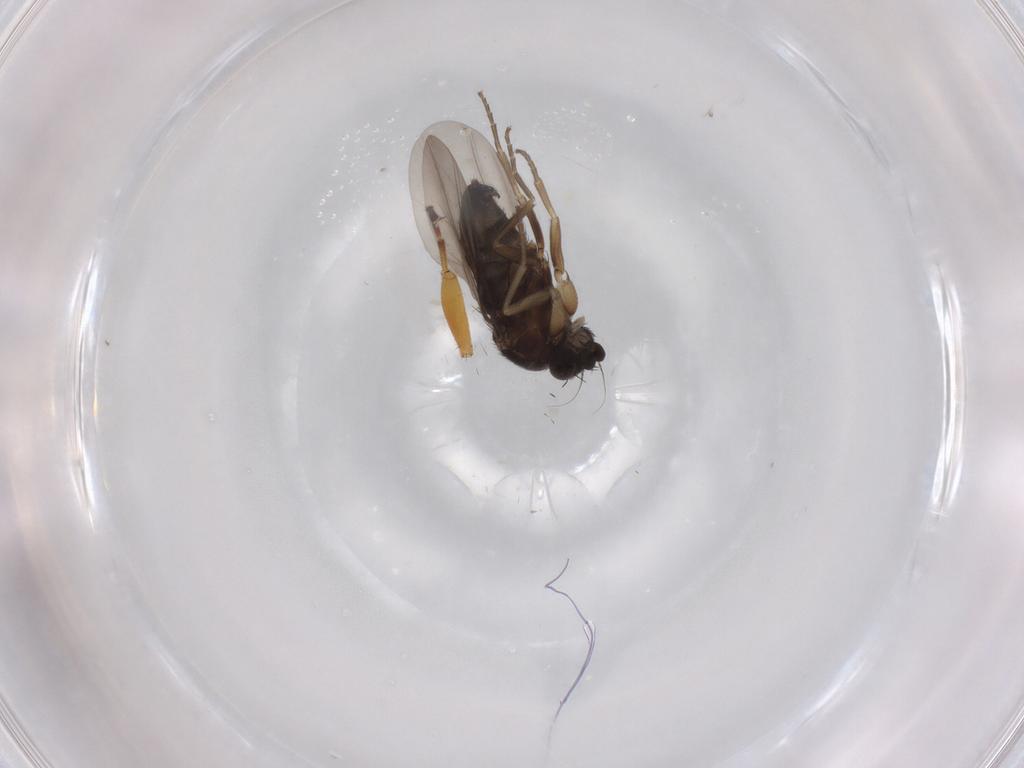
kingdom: Animalia
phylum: Arthropoda
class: Insecta
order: Diptera
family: Phoridae
